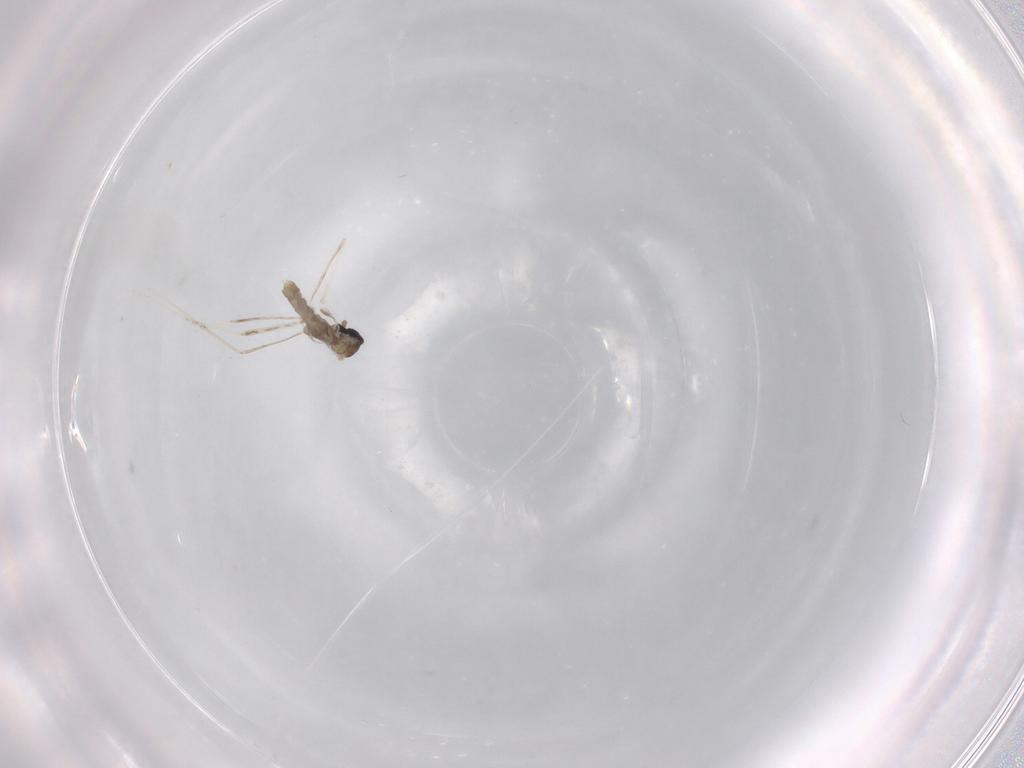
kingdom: Animalia
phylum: Arthropoda
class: Insecta
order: Diptera
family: Cecidomyiidae
